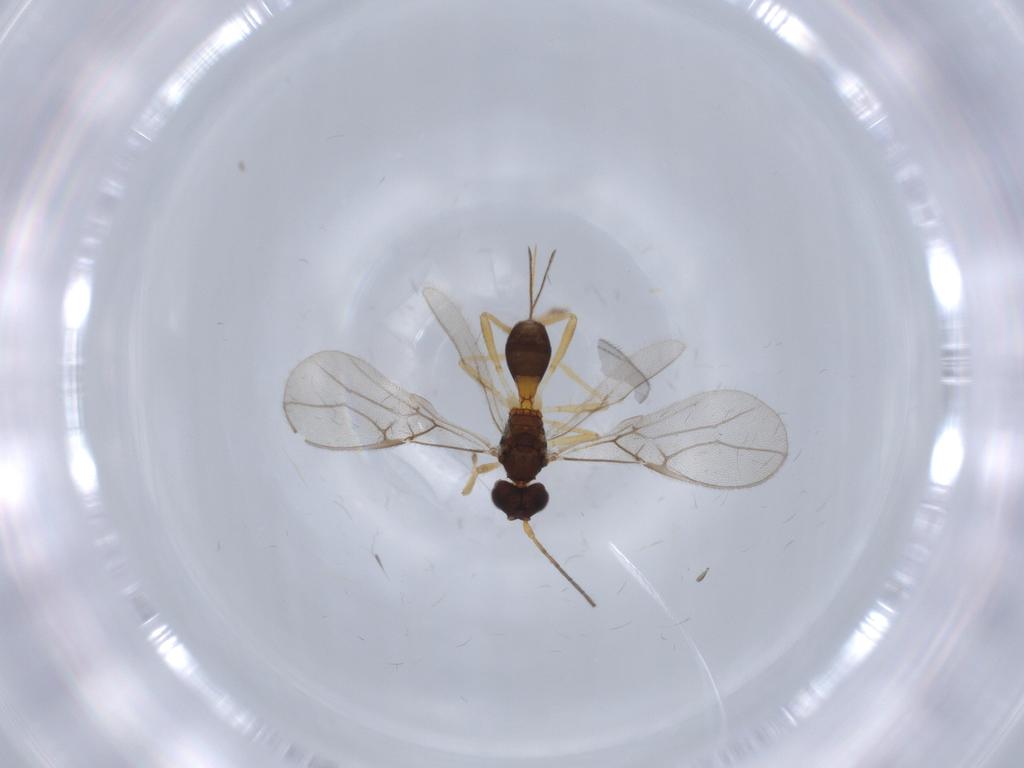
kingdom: Animalia
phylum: Arthropoda
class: Insecta
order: Hymenoptera
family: Braconidae
